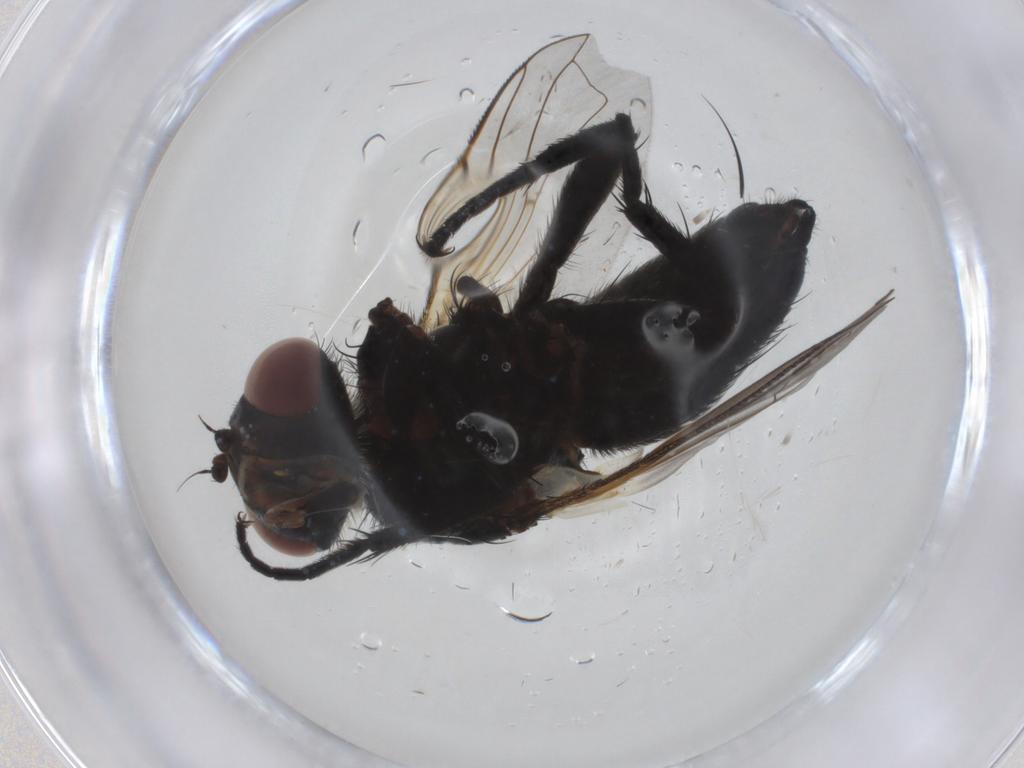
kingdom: Animalia
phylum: Arthropoda
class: Insecta
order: Diptera
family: Tachinidae
